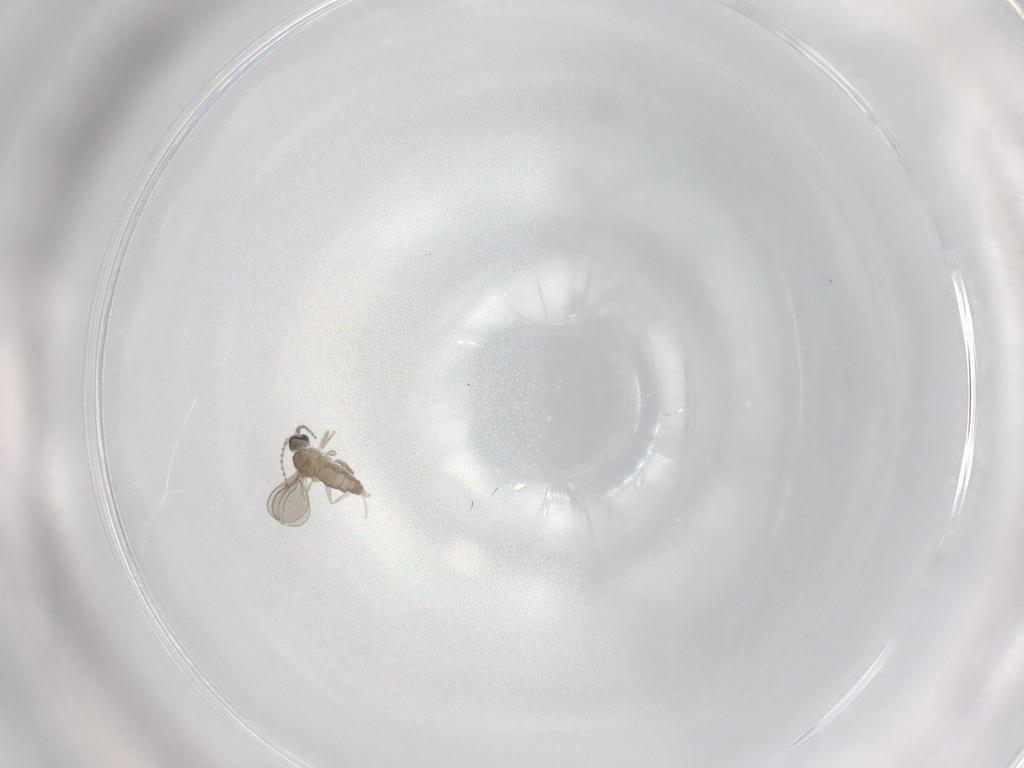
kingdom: Animalia
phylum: Arthropoda
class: Insecta
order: Diptera
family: Cecidomyiidae
